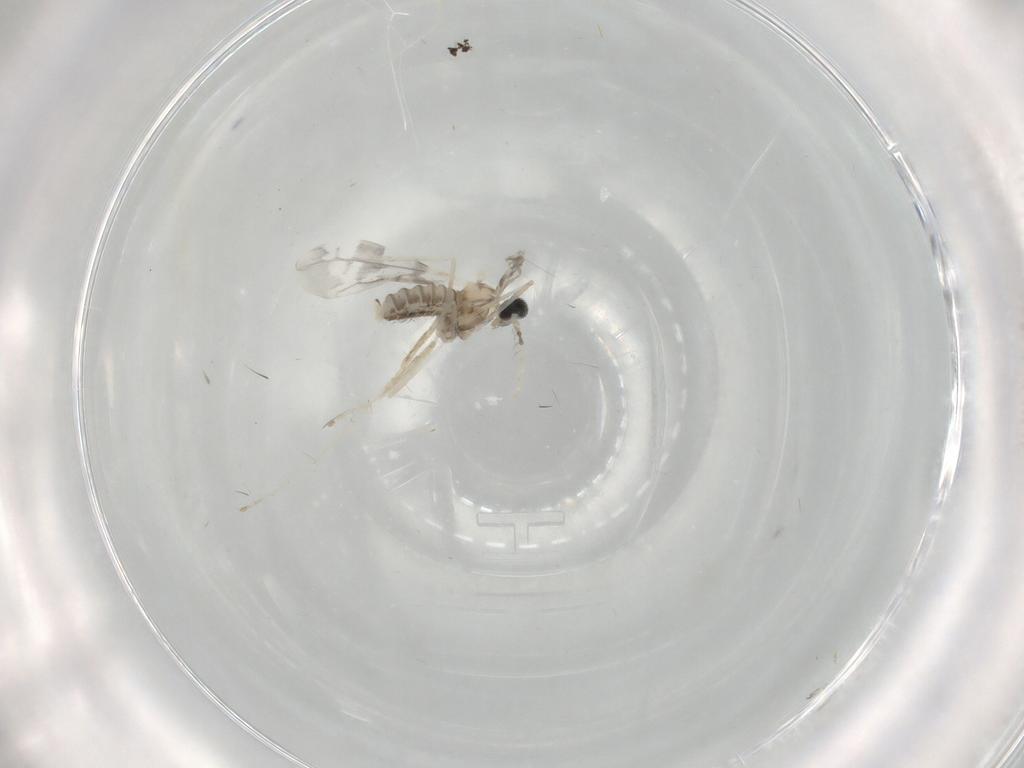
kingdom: Animalia
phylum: Arthropoda
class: Insecta
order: Diptera
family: Cecidomyiidae
